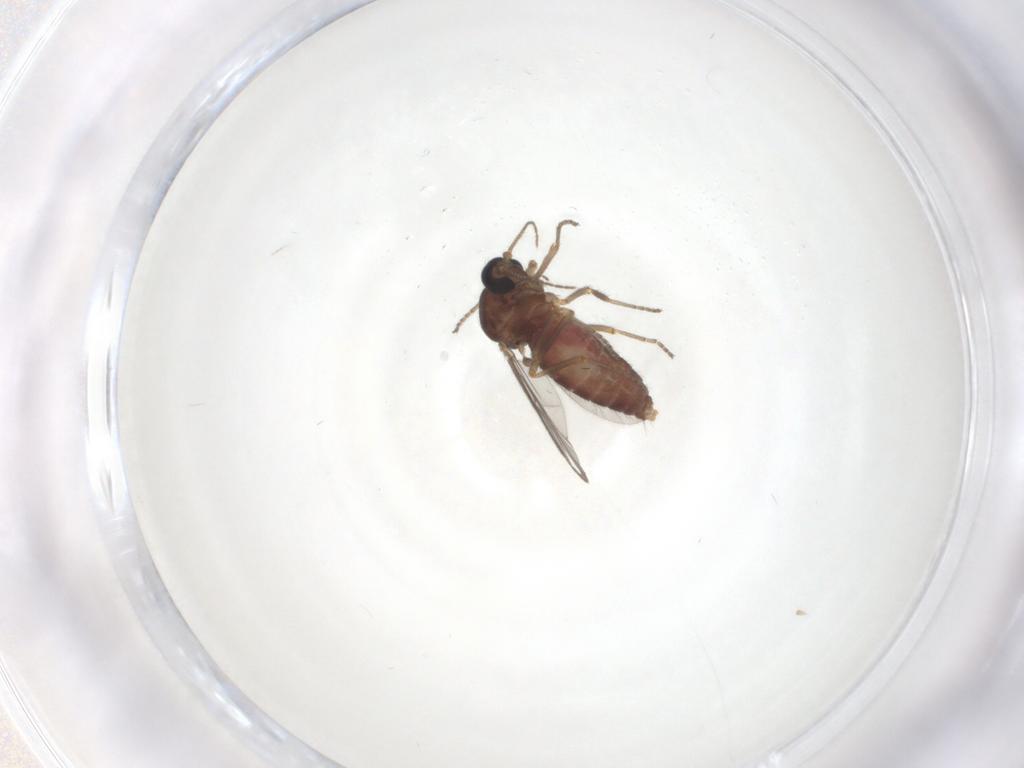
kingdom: Animalia
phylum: Arthropoda
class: Insecta
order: Diptera
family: Ceratopogonidae
